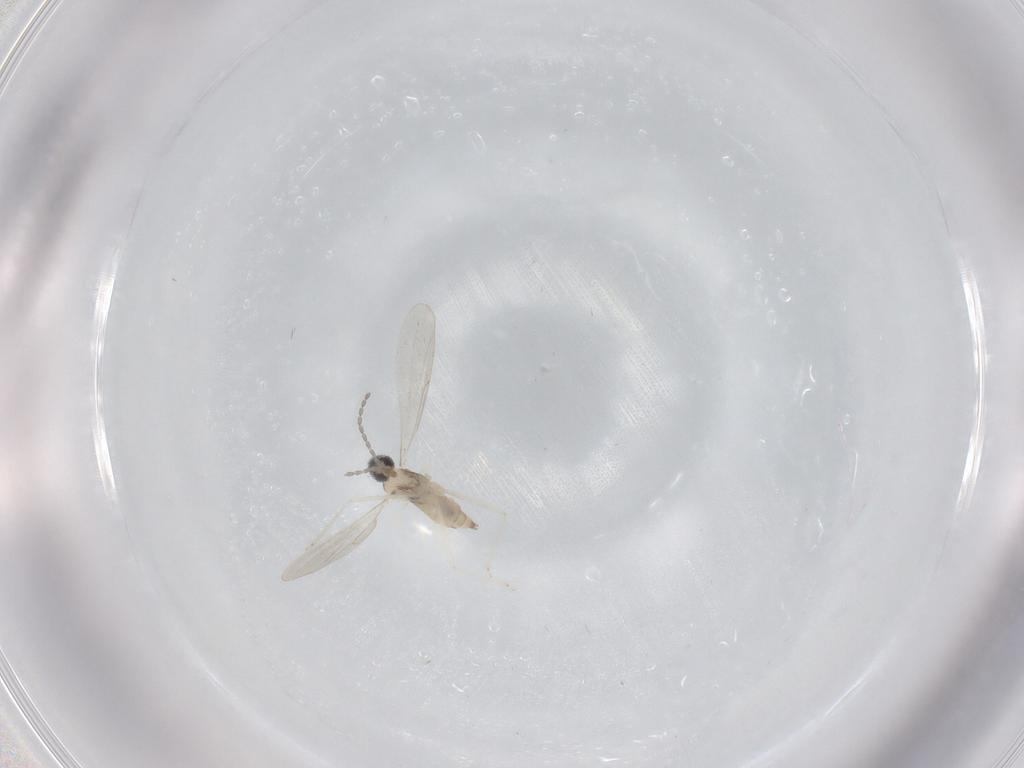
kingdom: Animalia
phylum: Arthropoda
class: Insecta
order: Diptera
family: Cecidomyiidae
